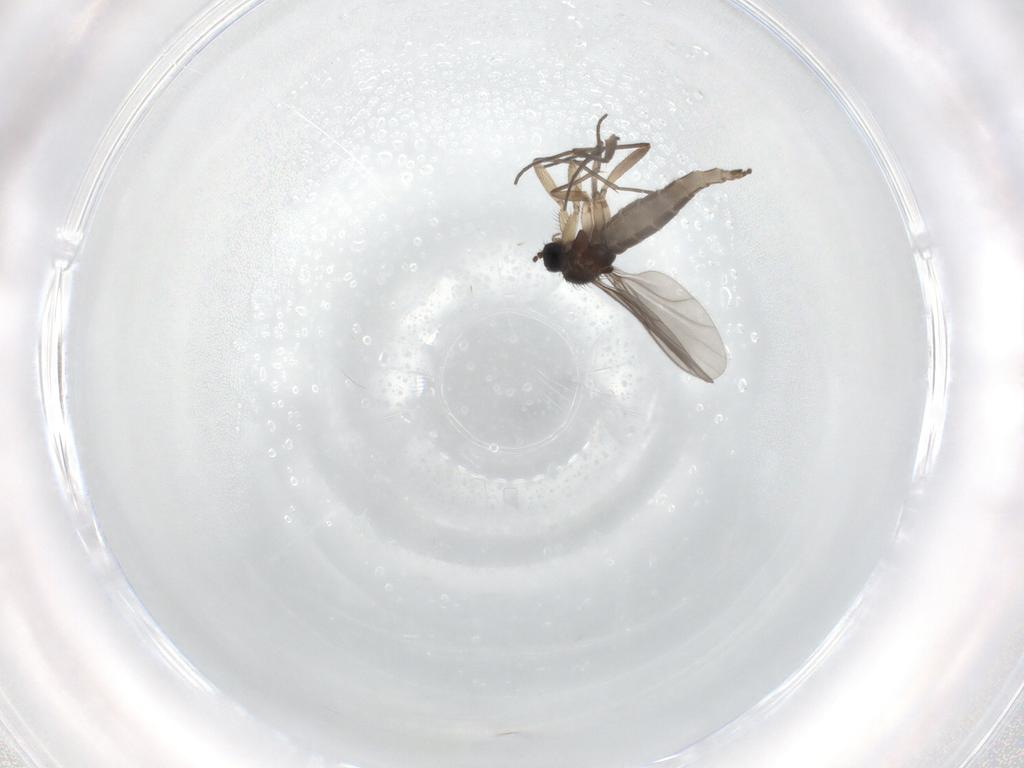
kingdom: Animalia
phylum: Arthropoda
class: Insecta
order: Diptera
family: Sciaridae
